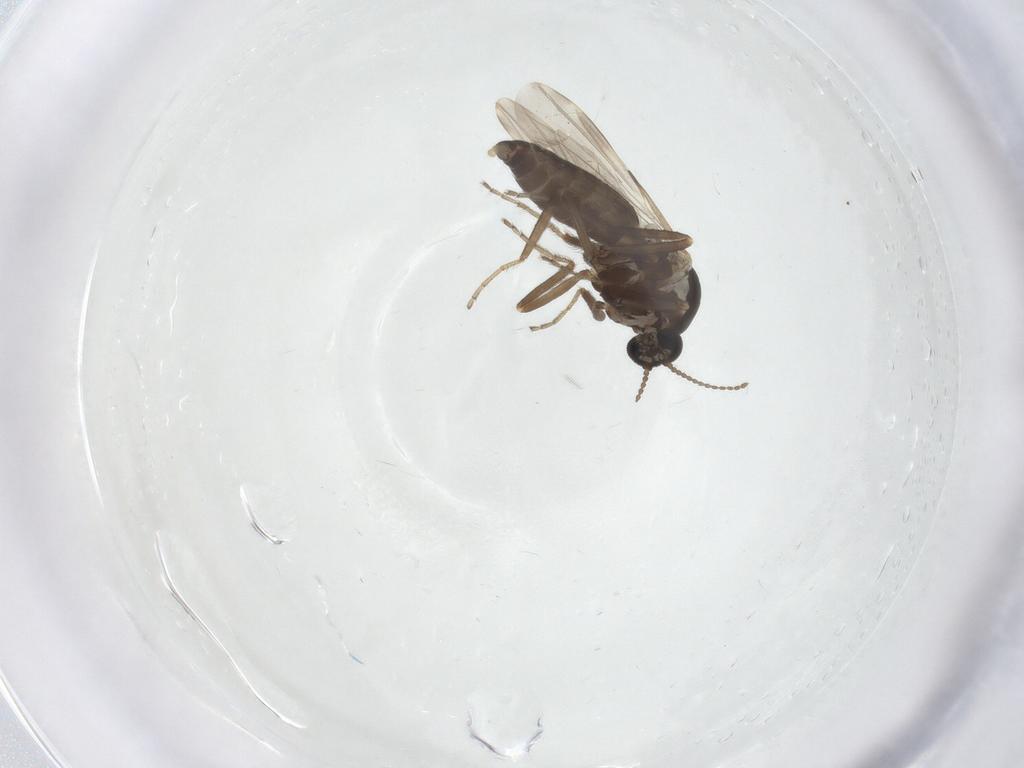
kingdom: Animalia
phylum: Arthropoda
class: Insecta
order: Diptera
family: Ceratopogonidae
